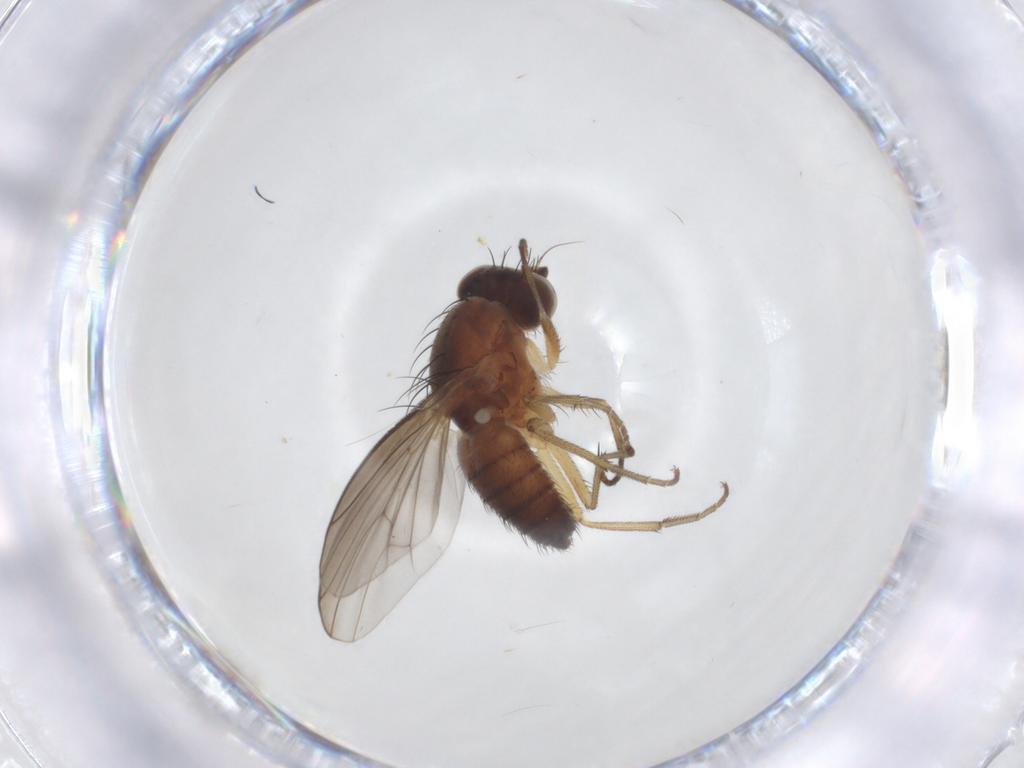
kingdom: Animalia
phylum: Arthropoda
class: Insecta
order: Diptera
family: Heleomyzidae
